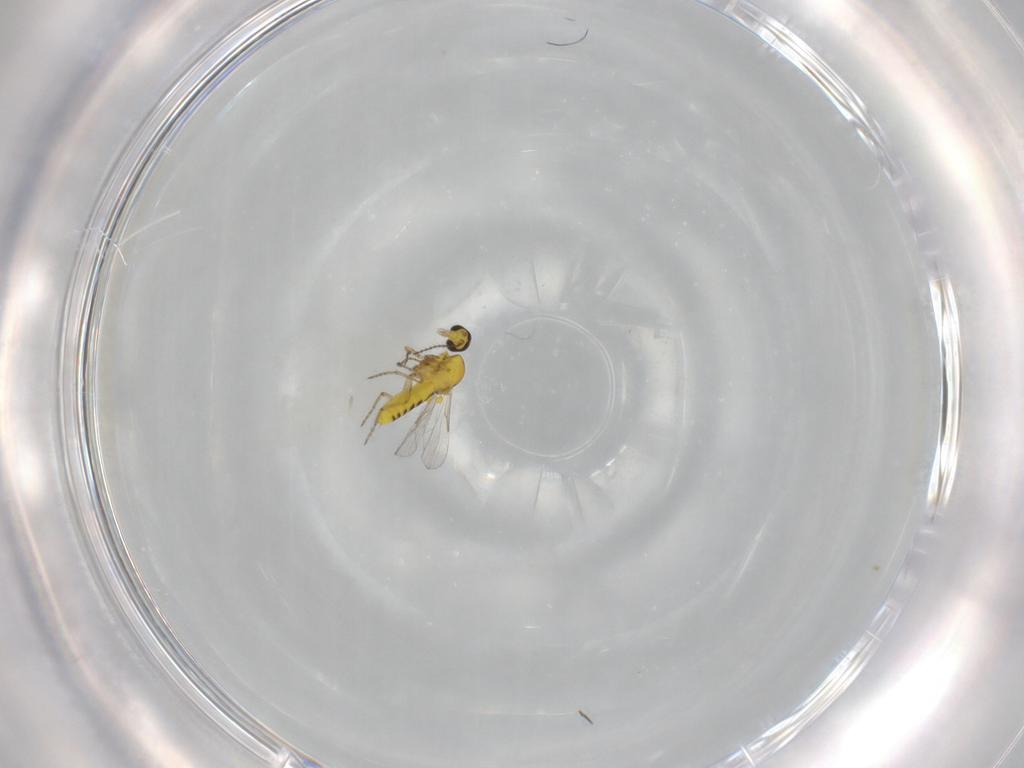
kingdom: Animalia
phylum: Arthropoda
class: Insecta
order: Diptera
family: Ceratopogonidae
